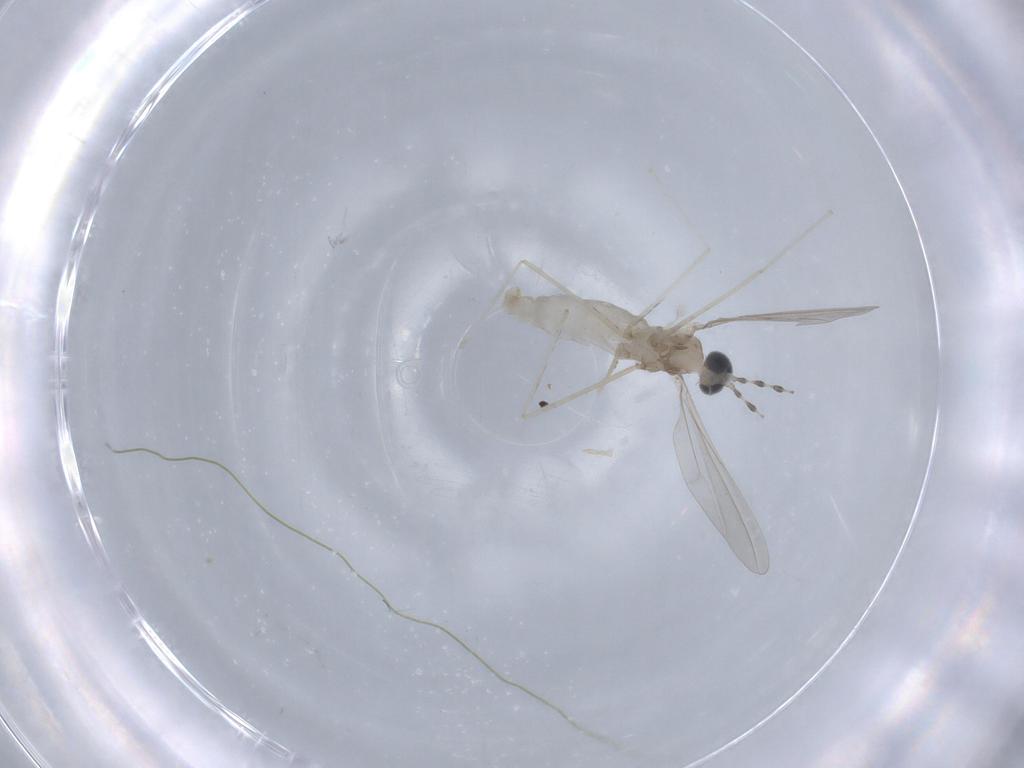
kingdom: Animalia
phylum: Arthropoda
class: Insecta
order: Diptera
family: Cecidomyiidae
